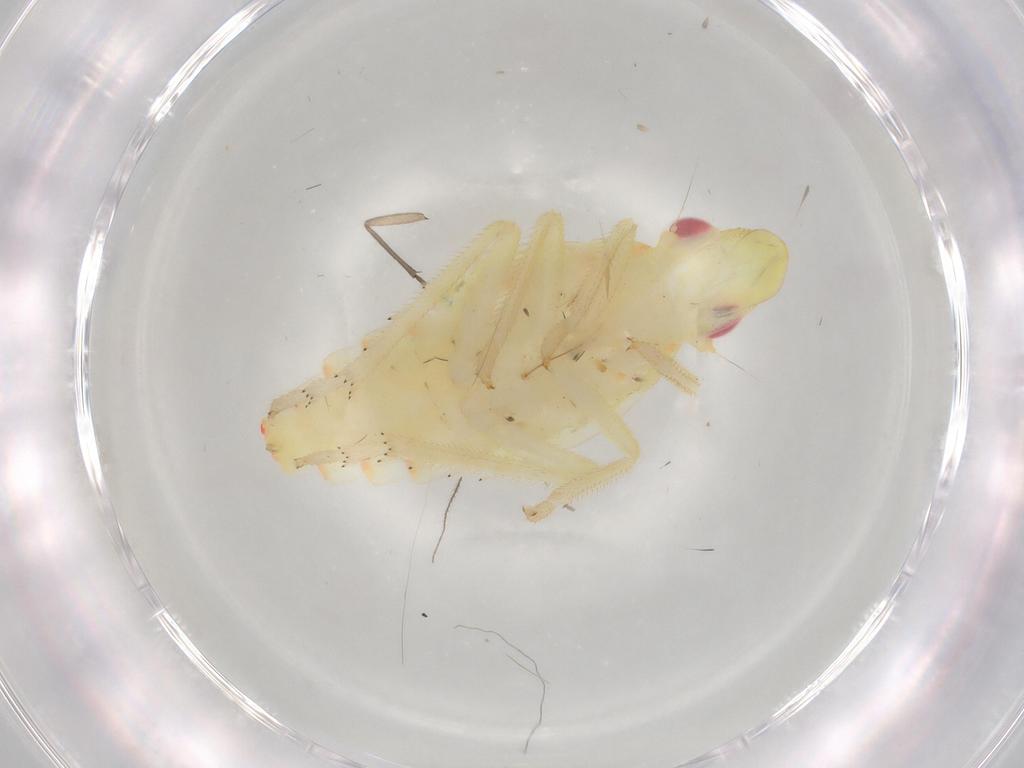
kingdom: Animalia
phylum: Arthropoda
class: Insecta
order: Hemiptera
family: Tropiduchidae
